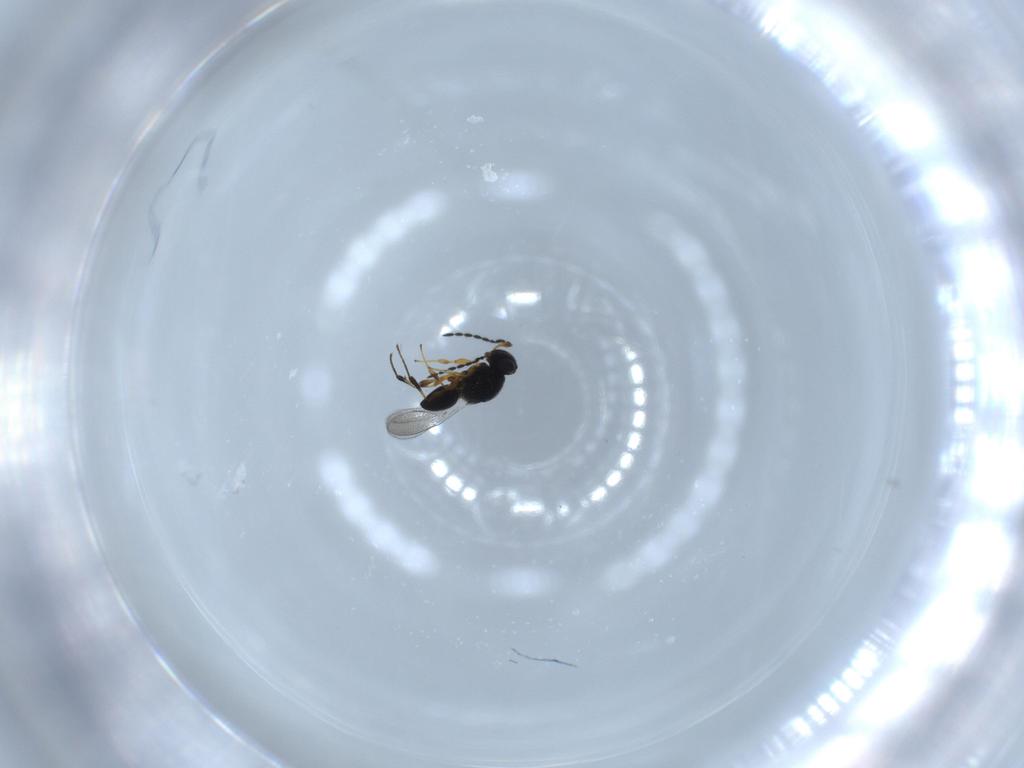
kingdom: Animalia
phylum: Arthropoda
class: Insecta
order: Hymenoptera
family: Platygastridae
